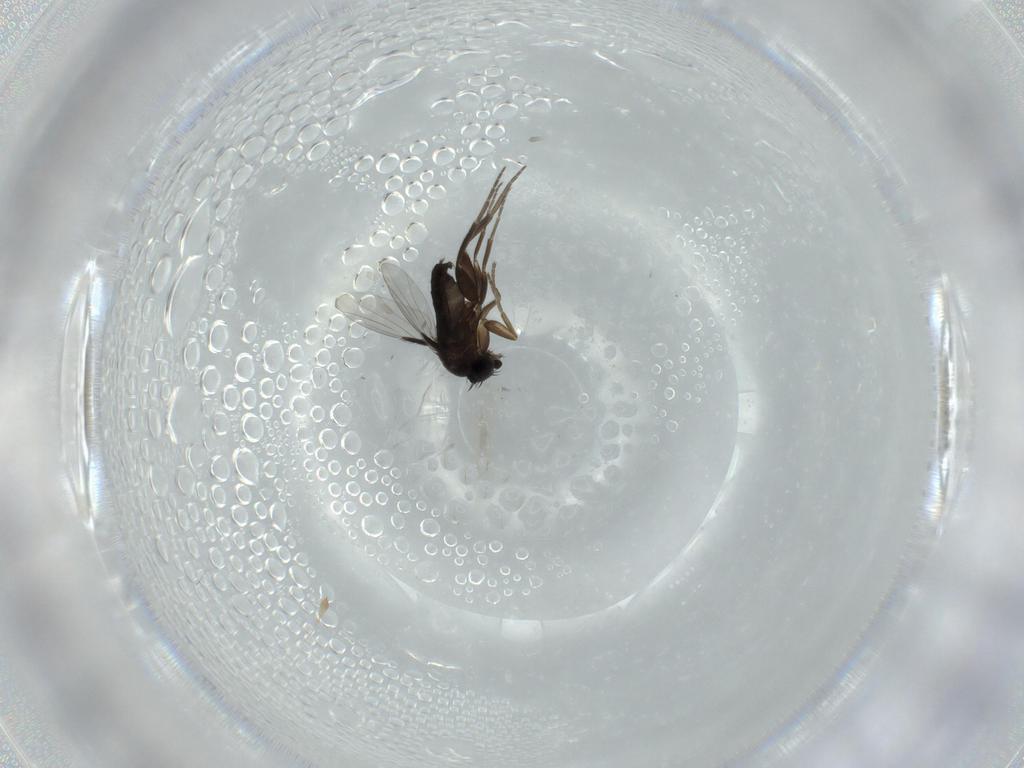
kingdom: Animalia
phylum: Arthropoda
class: Insecta
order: Diptera
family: Phoridae
